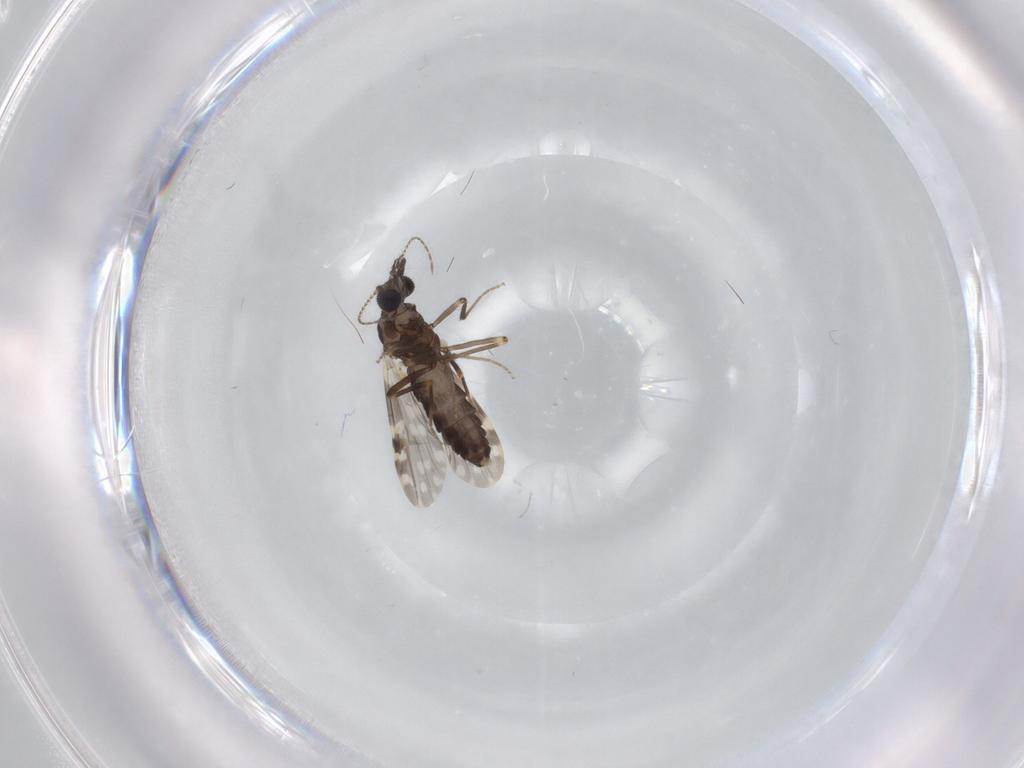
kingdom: Animalia
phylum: Arthropoda
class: Insecta
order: Diptera
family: Ceratopogonidae
